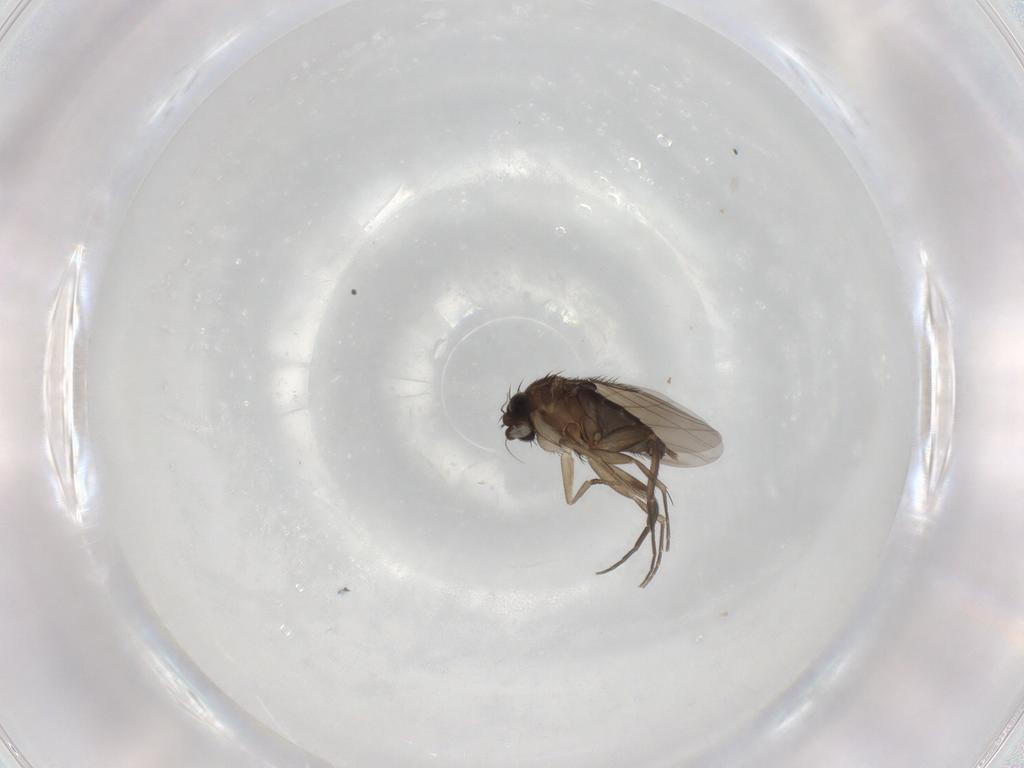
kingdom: Animalia
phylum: Arthropoda
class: Insecta
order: Diptera
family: Phoridae
